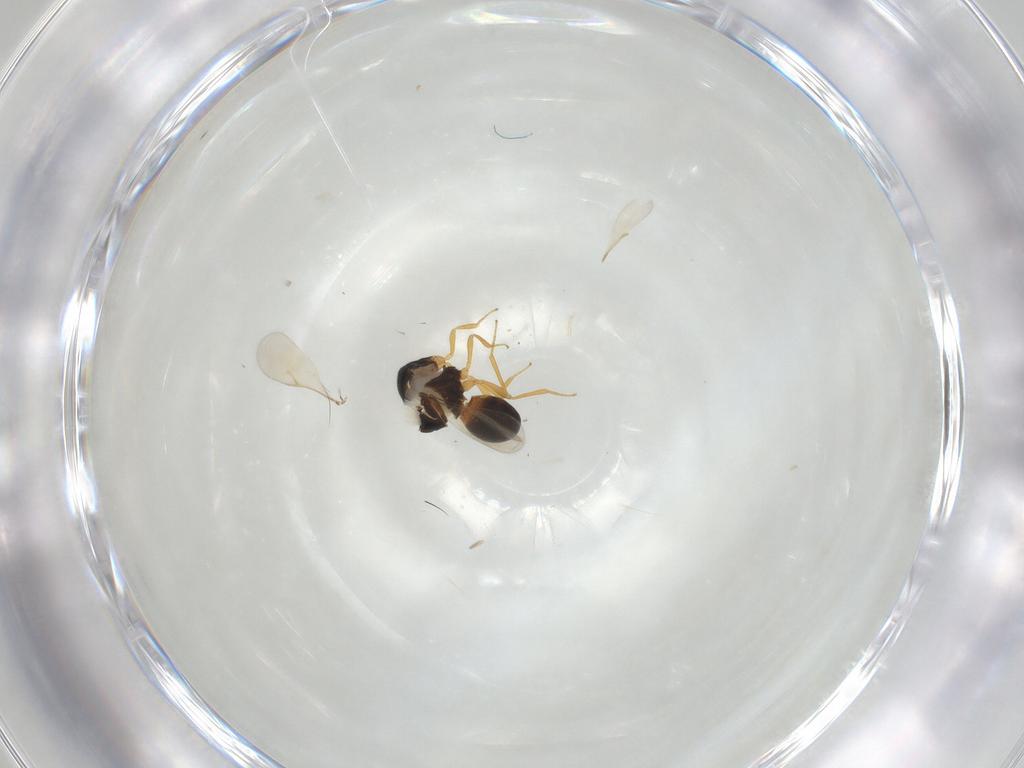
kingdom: Animalia
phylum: Arthropoda
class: Insecta
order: Hymenoptera
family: Scelionidae
